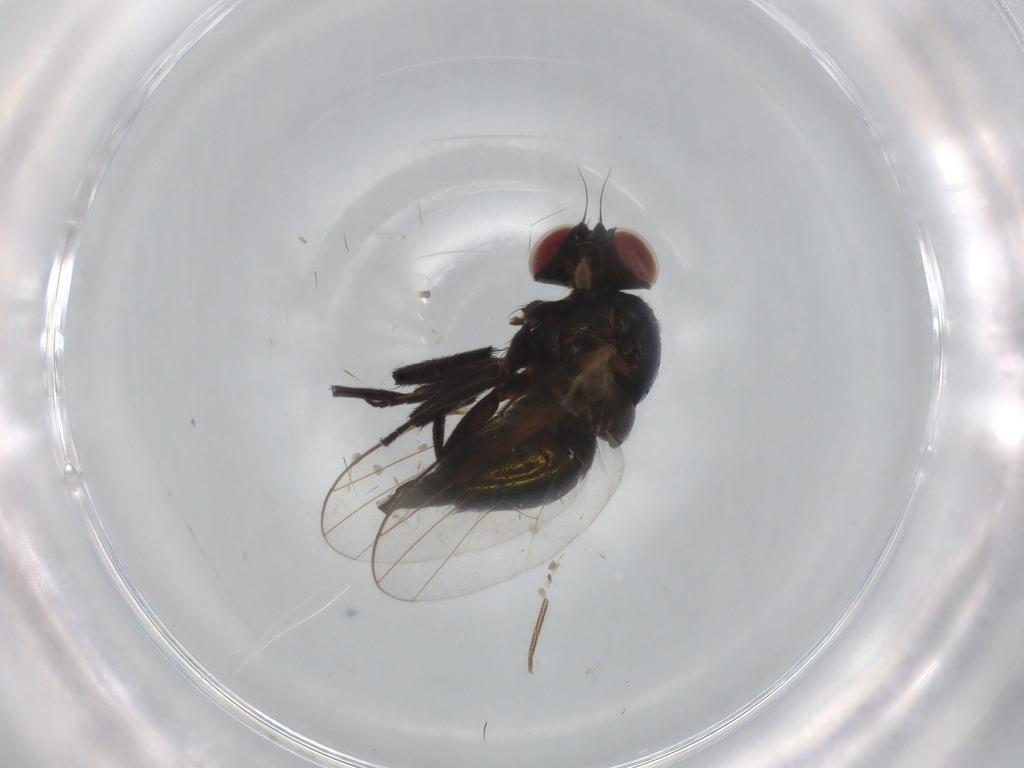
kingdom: Animalia
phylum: Arthropoda
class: Insecta
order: Diptera
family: Agromyzidae
